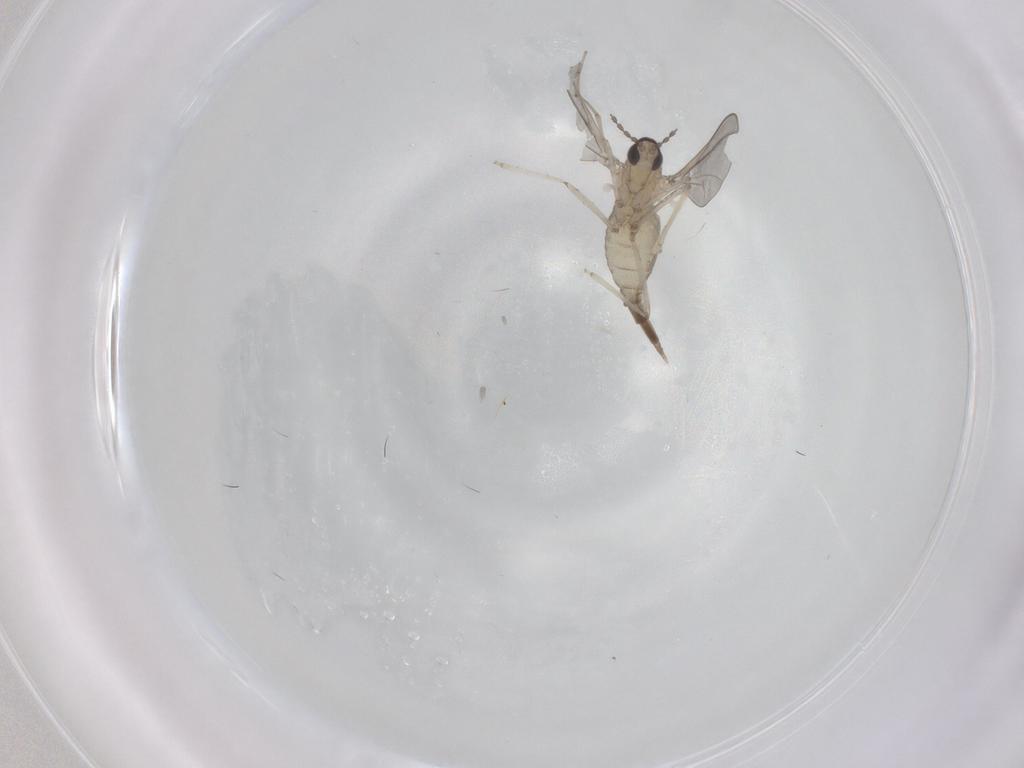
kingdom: Animalia
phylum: Arthropoda
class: Insecta
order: Diptera
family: Cecidomyiidae
